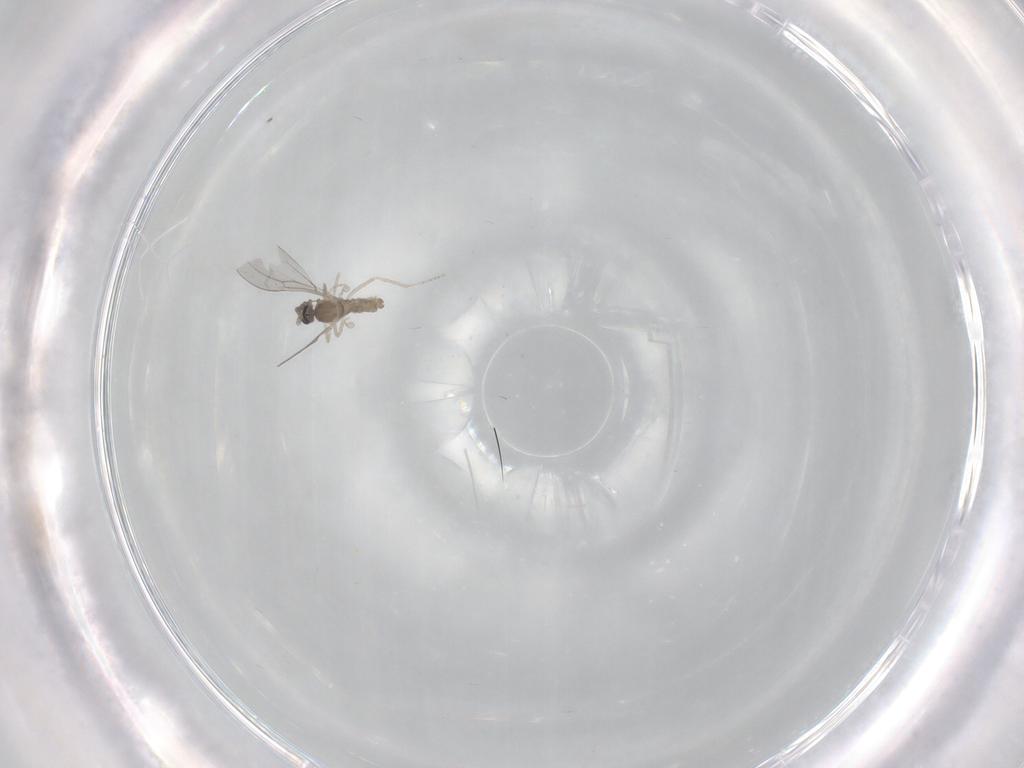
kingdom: Animalia
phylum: Arthropoda
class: Insecta
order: Diptera
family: Cecidomyiidae
